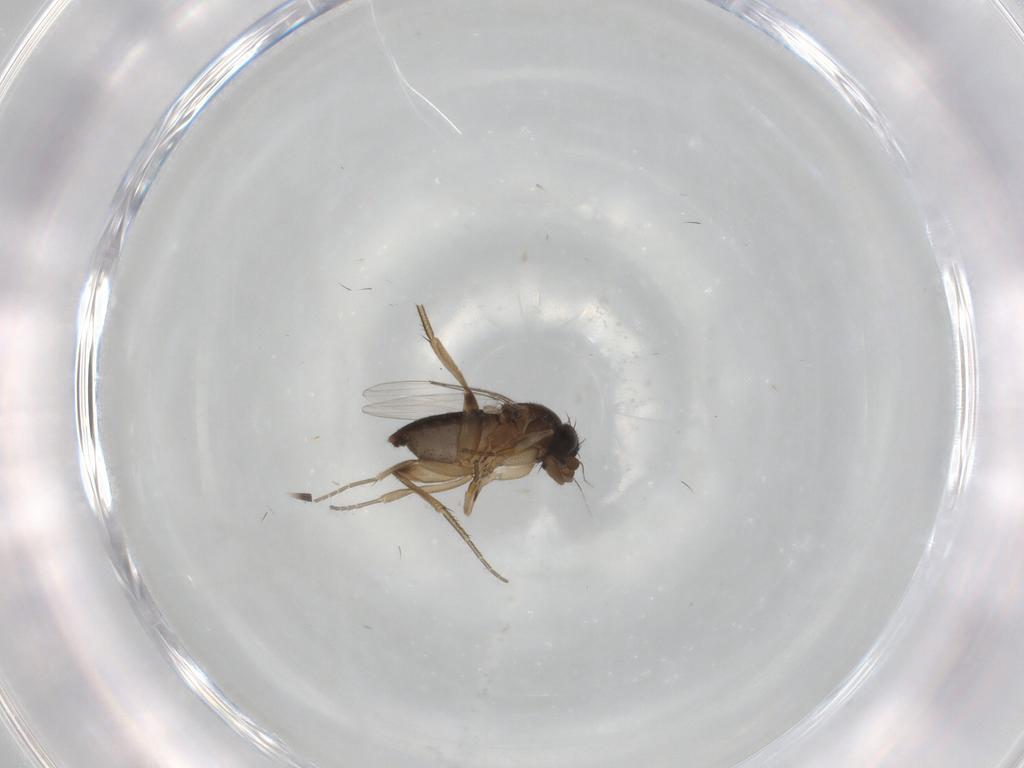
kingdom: Animalia
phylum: Arthropoda
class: Insecta
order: Diptera
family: Phoridae
